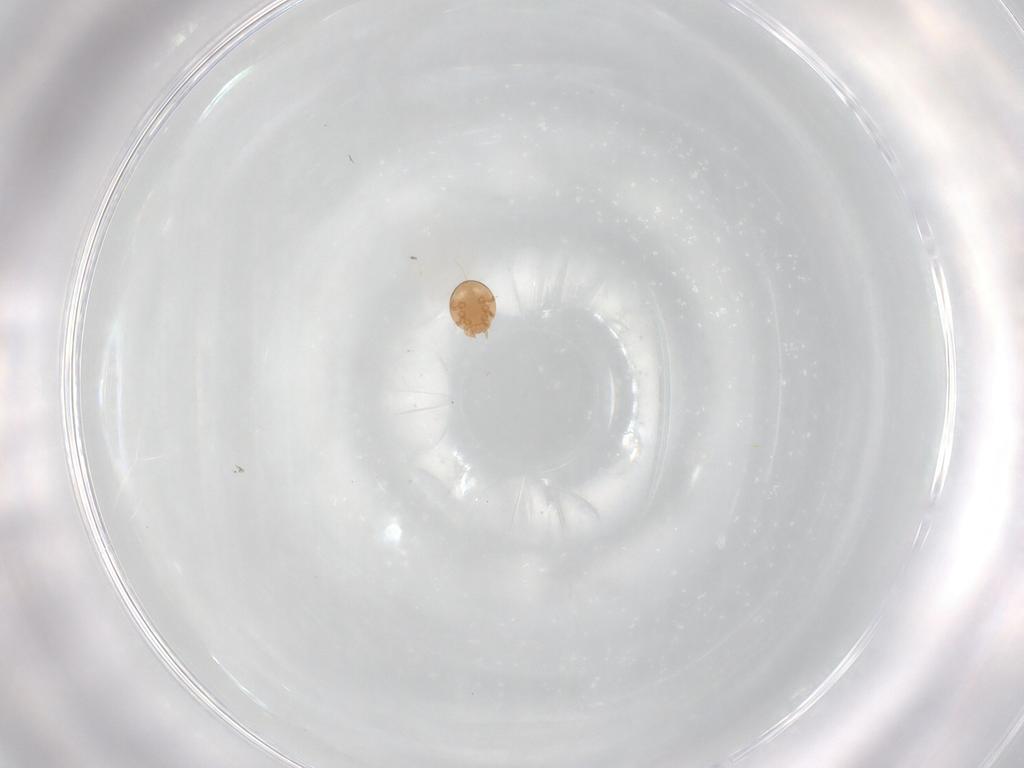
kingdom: Animalia
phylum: Arthropoda
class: Arachnida
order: Mesostigmata
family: Trematuridae
